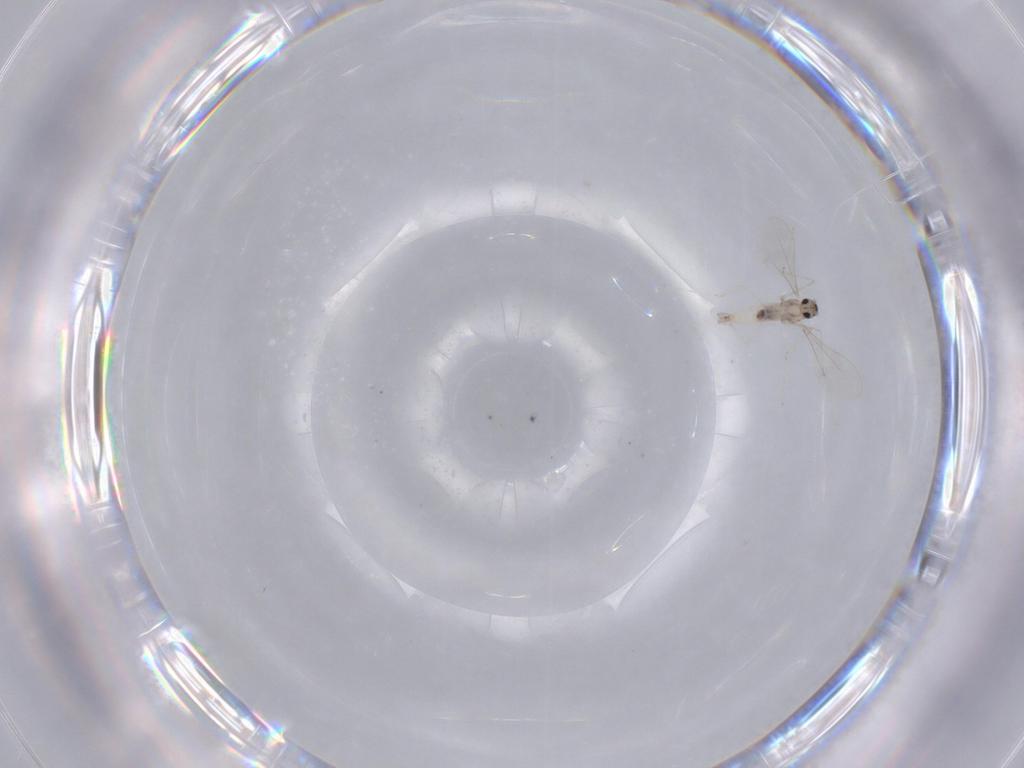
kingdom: Animalia
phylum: Arthropoda
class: Insecta
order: Diptera
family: Cecidomyiidae
